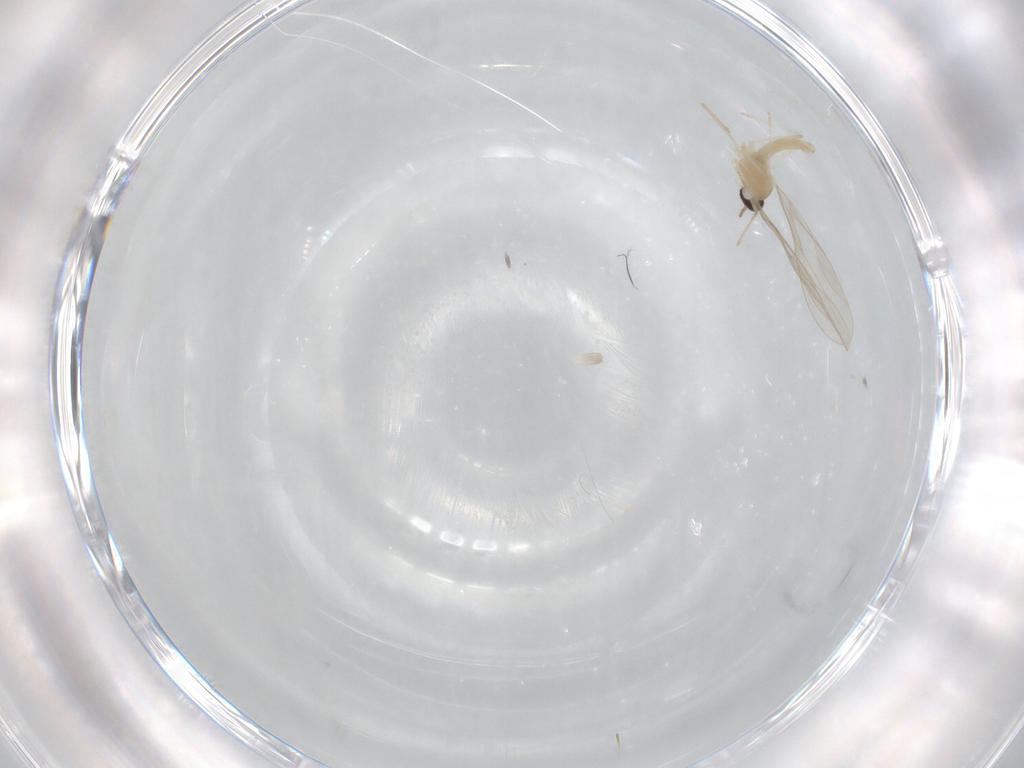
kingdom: Animalia
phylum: Arthropoda
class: Insecta
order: Diptera
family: Cecidomyiidae
